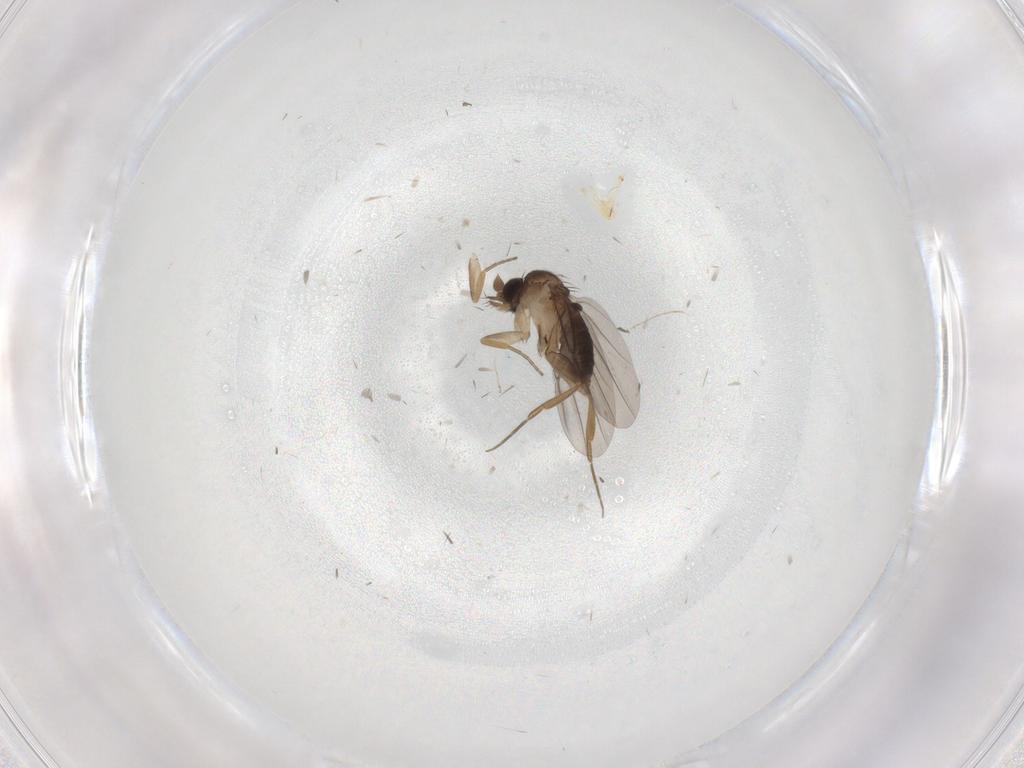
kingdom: Animalia
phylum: Arthropoda
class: Insecta
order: Diptera
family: Phoridae
